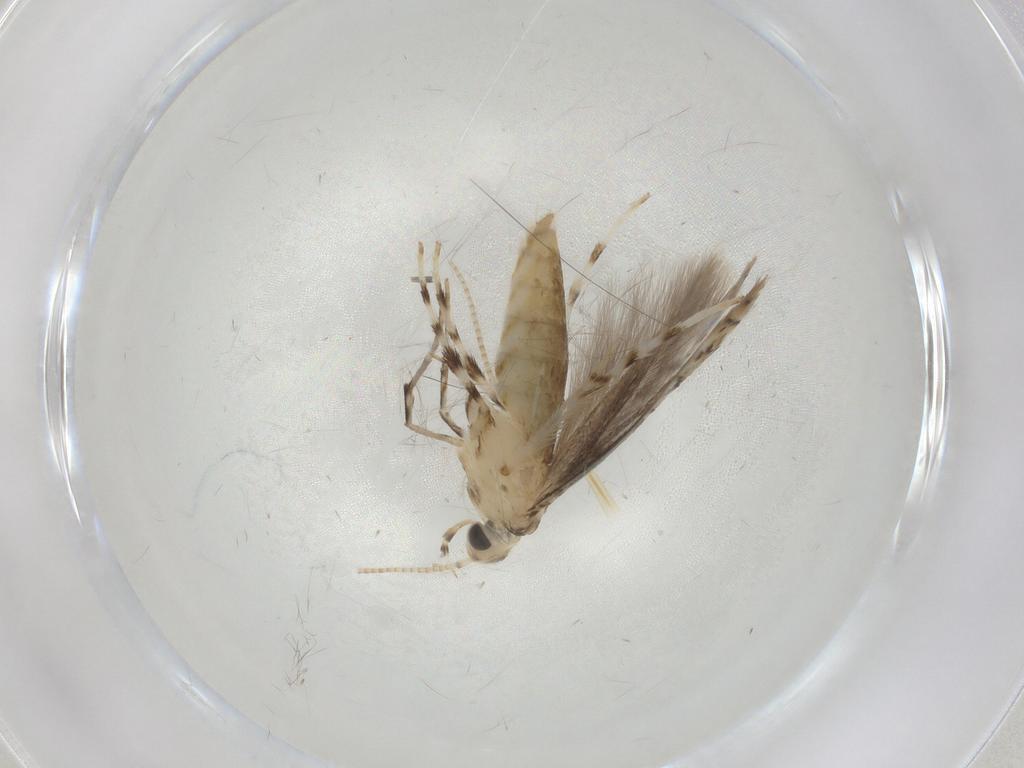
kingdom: Animalia
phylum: Arthropoda
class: Insecta
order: Lepidoptera
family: Gracillariidae
